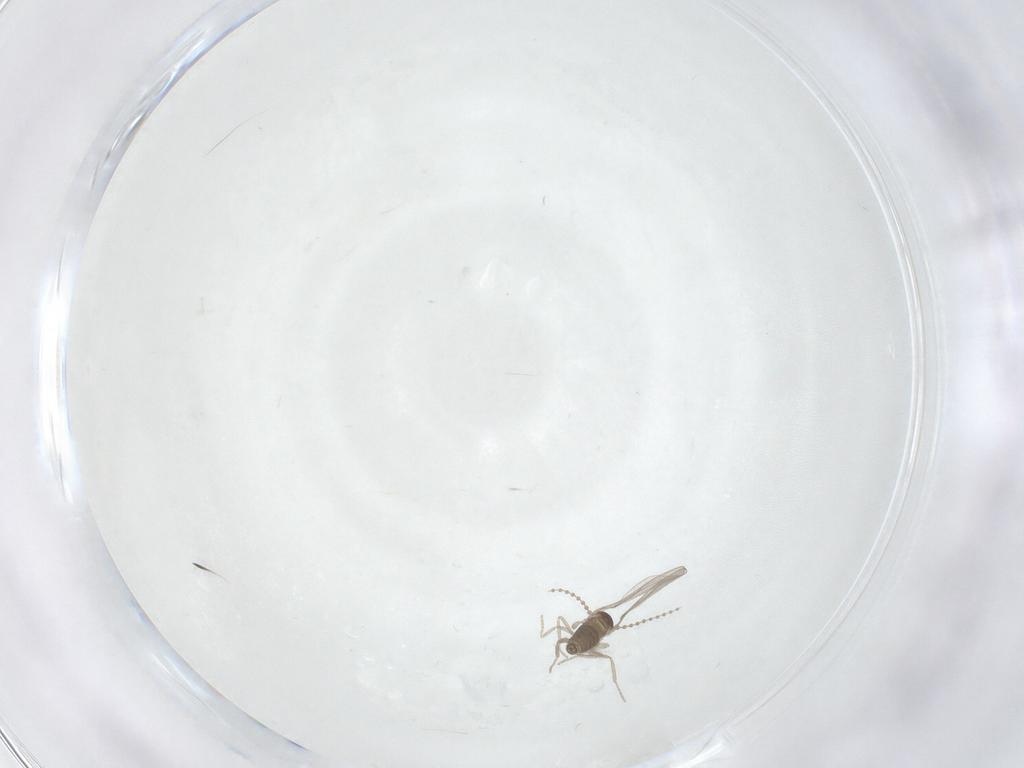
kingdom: Animalia
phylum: Arthropoda
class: Insecta
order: Diptera
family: Cecidomyiidae
